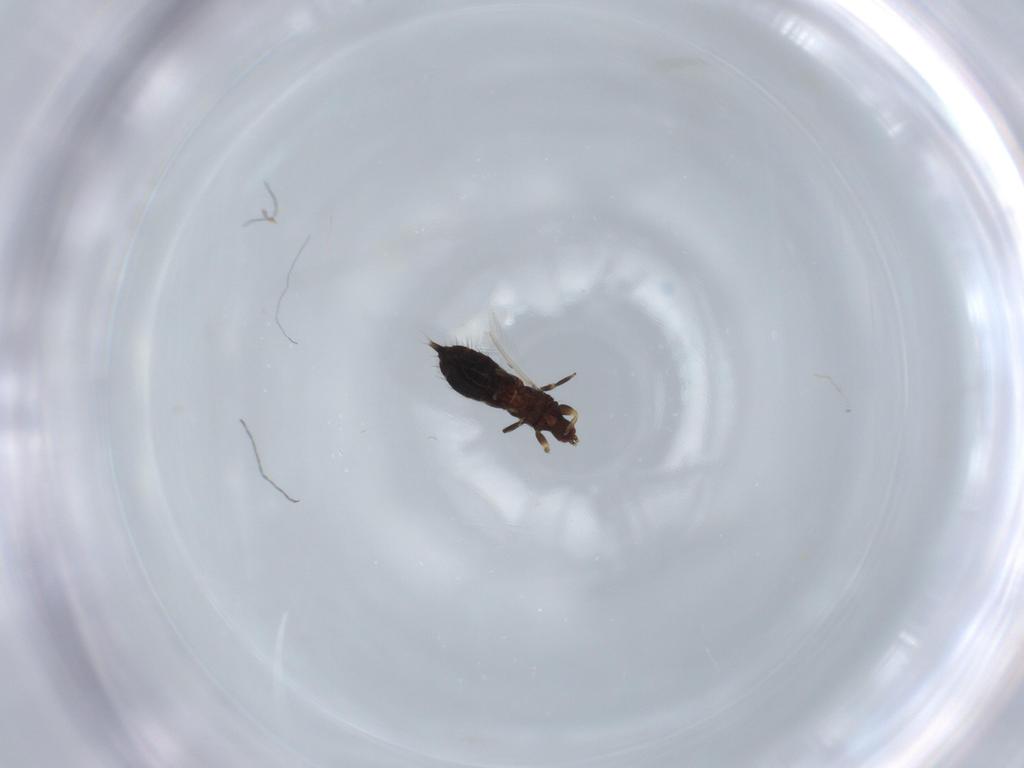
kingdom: Animalia
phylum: Arthropoda
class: Insecta
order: Thysanoptera
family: Phlaeothripidae
